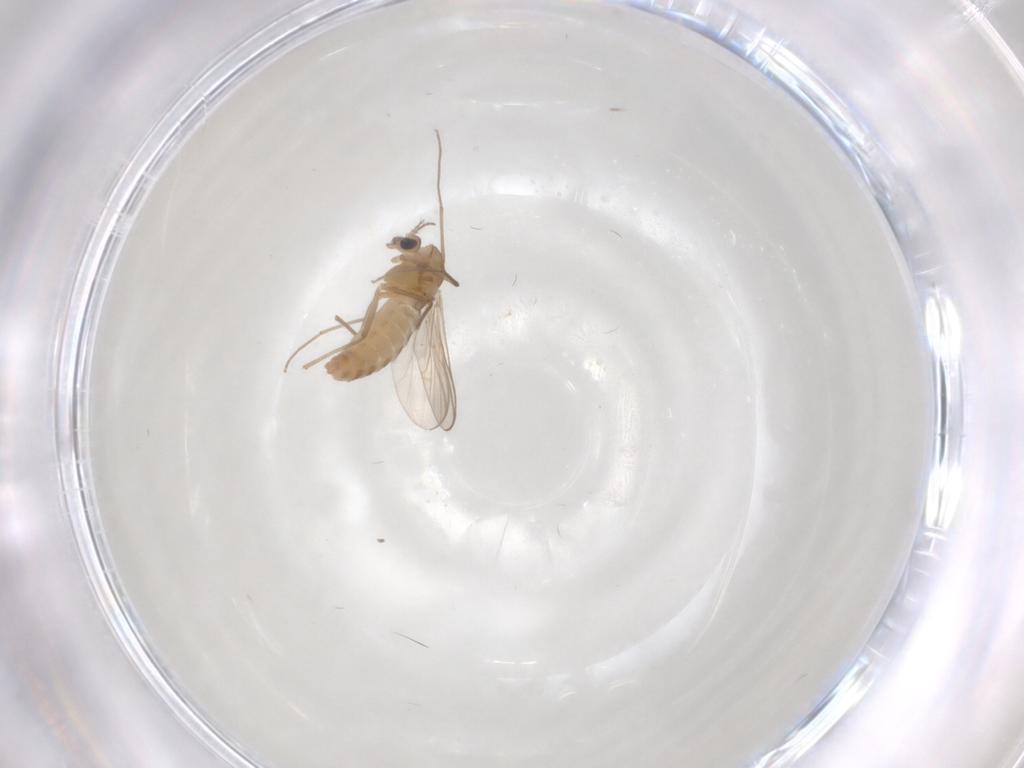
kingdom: Animalia
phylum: Arthropoda
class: Insecta
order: Diptera
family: Chironomidae
